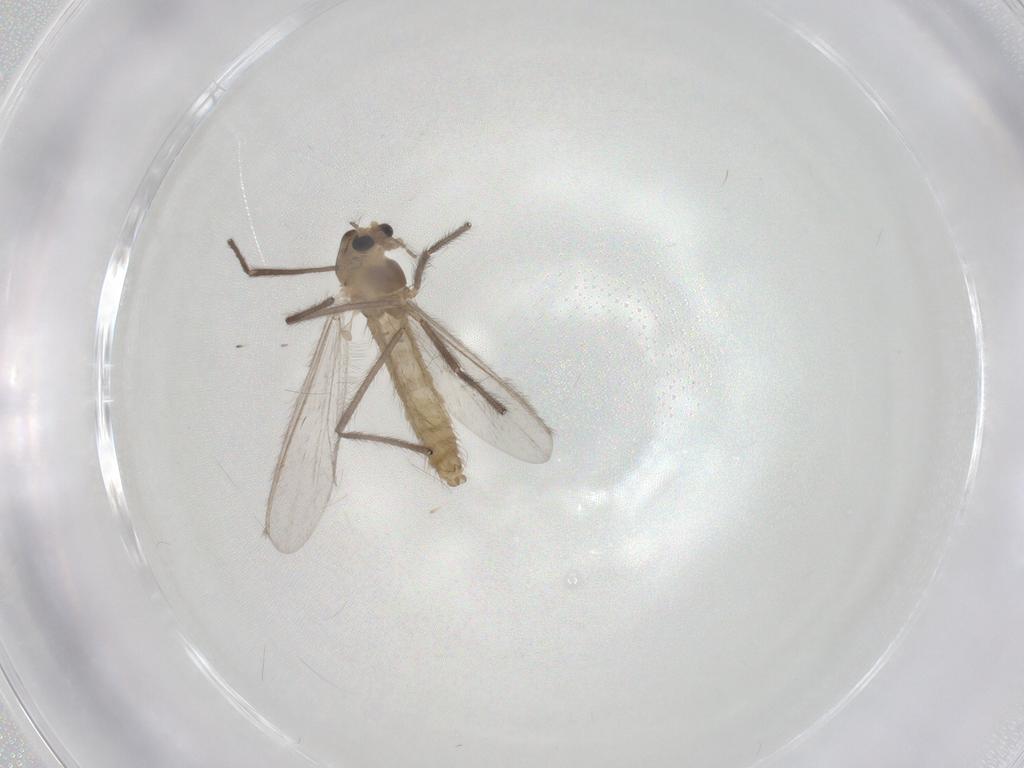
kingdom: Animalia
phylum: Arthropoda
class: Insecta
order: Diptera
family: Chironomidae
